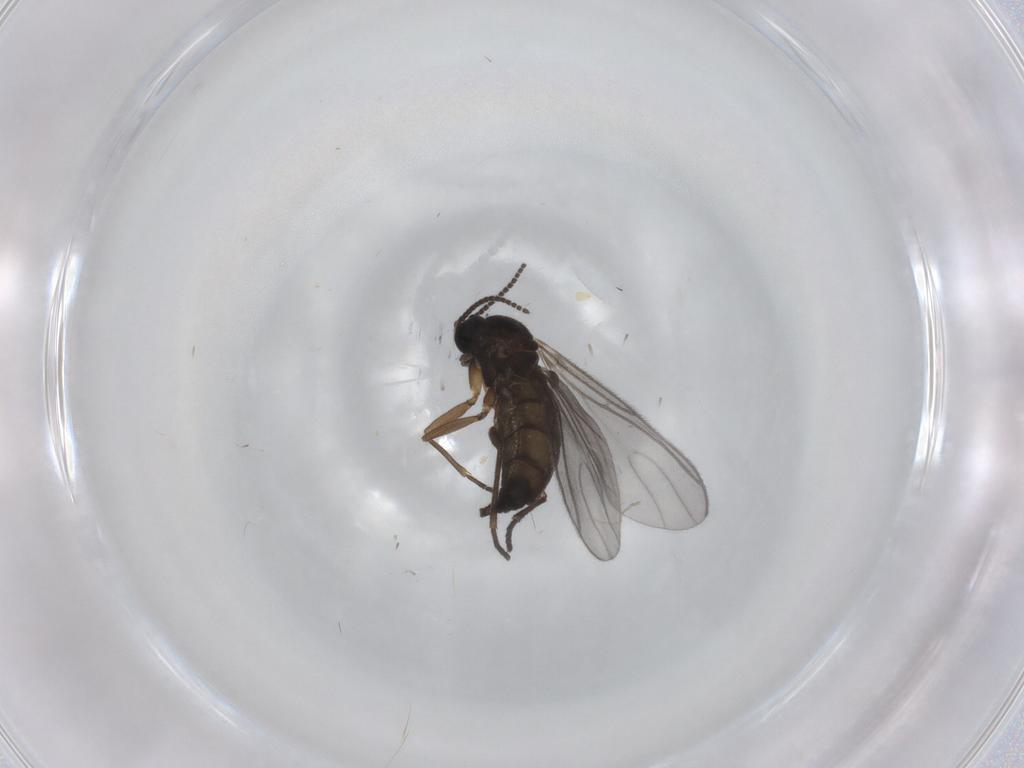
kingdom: Animalia
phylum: Arthropoda
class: Insecta
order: Diptera
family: Sciaridae
